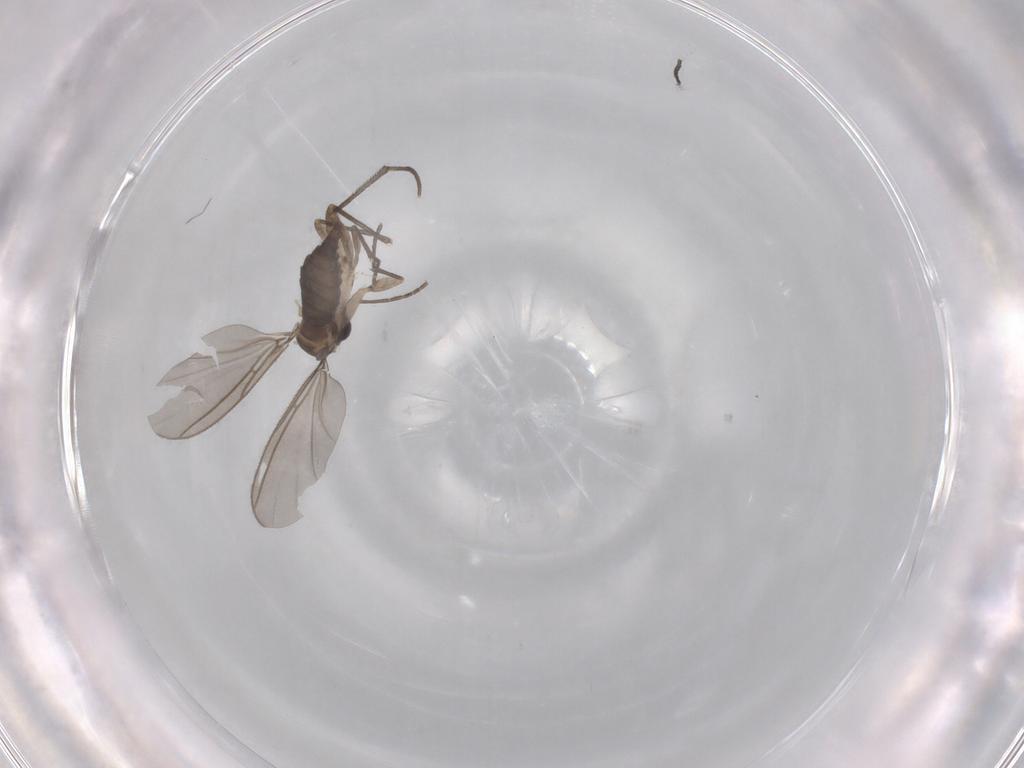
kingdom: Animalia
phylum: Arthropoda
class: Insecta
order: Diptera
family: Sciaridae
